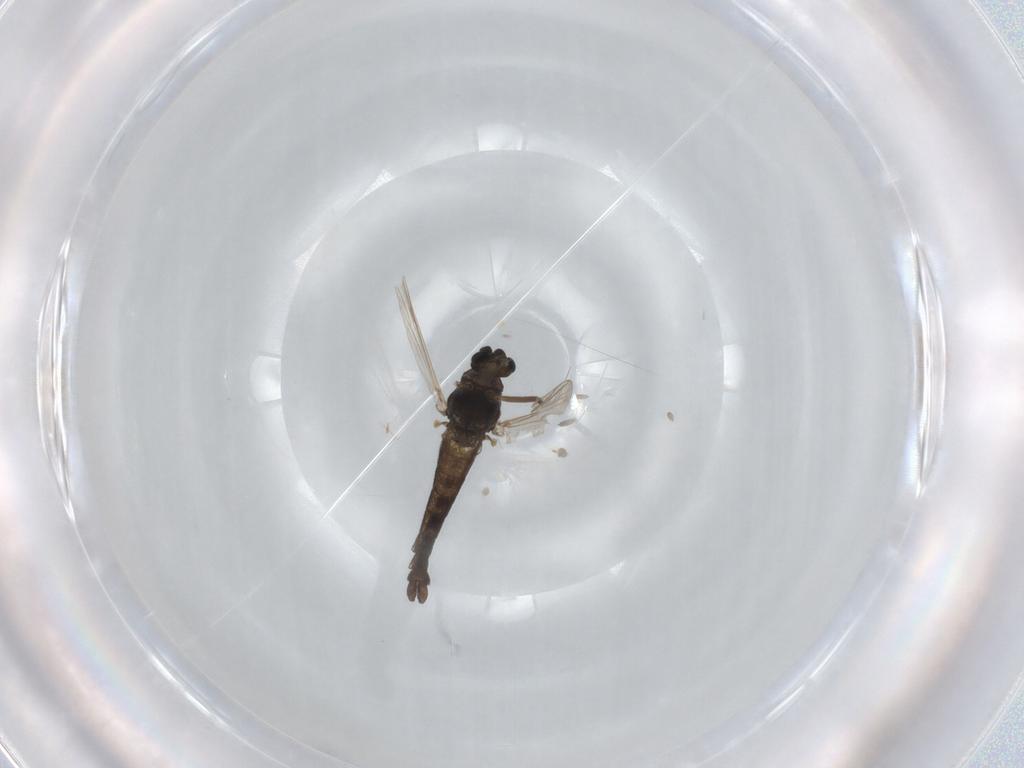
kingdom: Animalia
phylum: Arthropoda
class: Insecta
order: Diptera
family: Chironomidae
